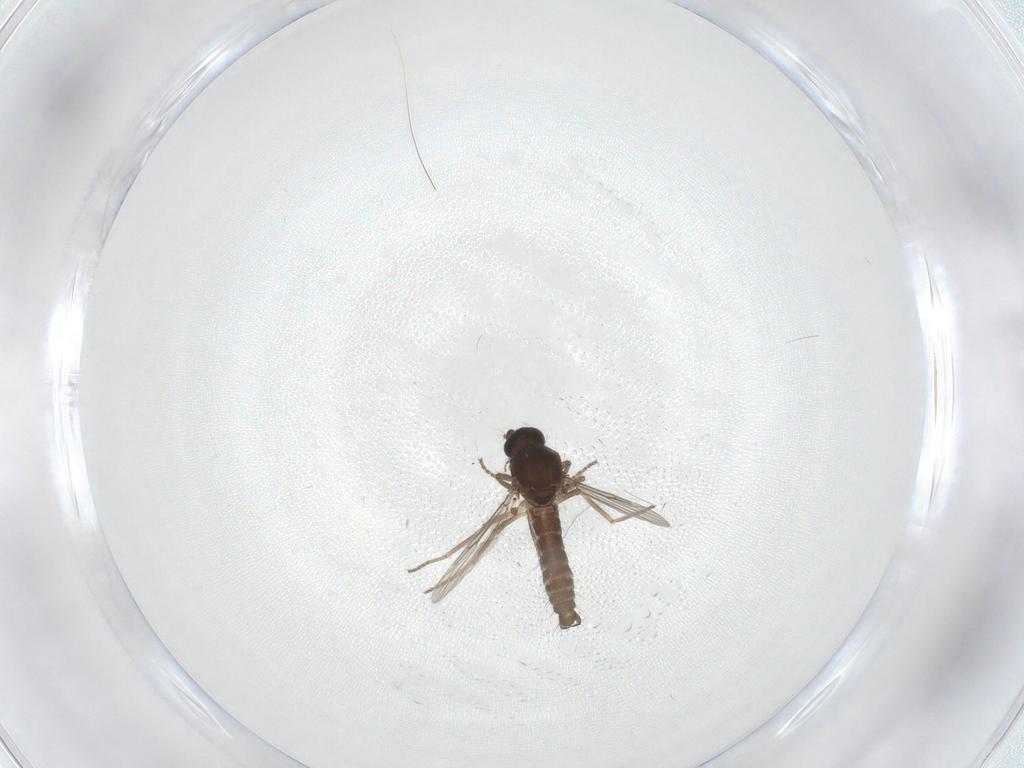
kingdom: Animalia
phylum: Arthropoda
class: Insecta
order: Diptera
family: Ceratopogonidae
